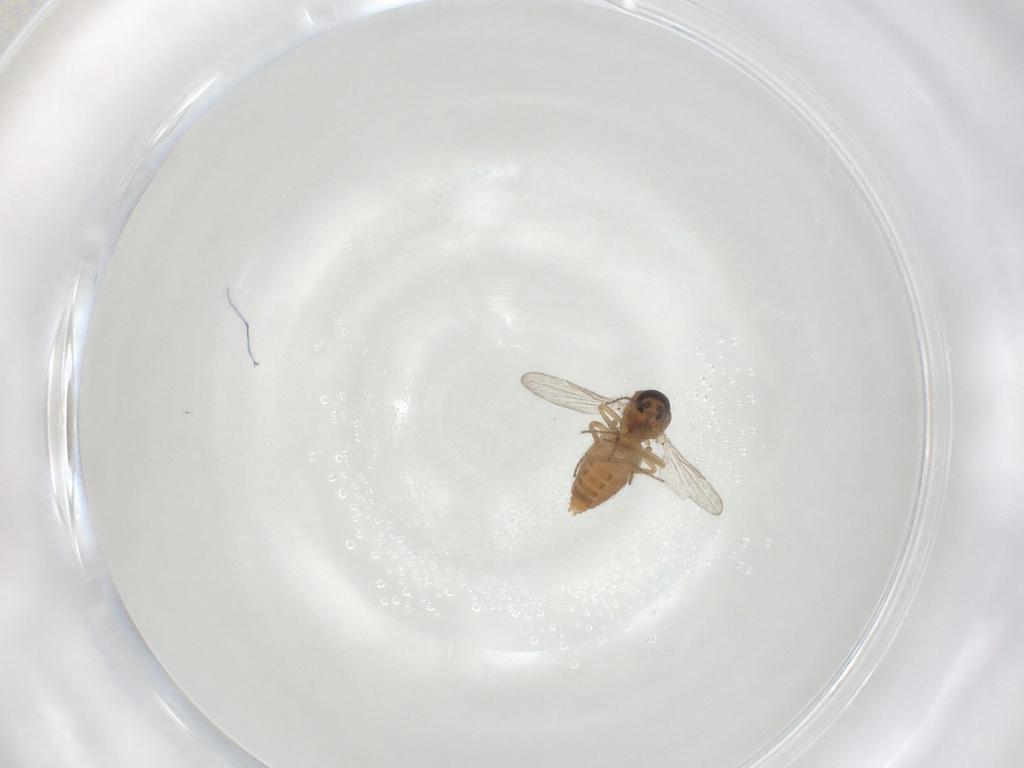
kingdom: Animalia
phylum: Arthropoda
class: Insecta
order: Diptera
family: Ceratopogonidae
